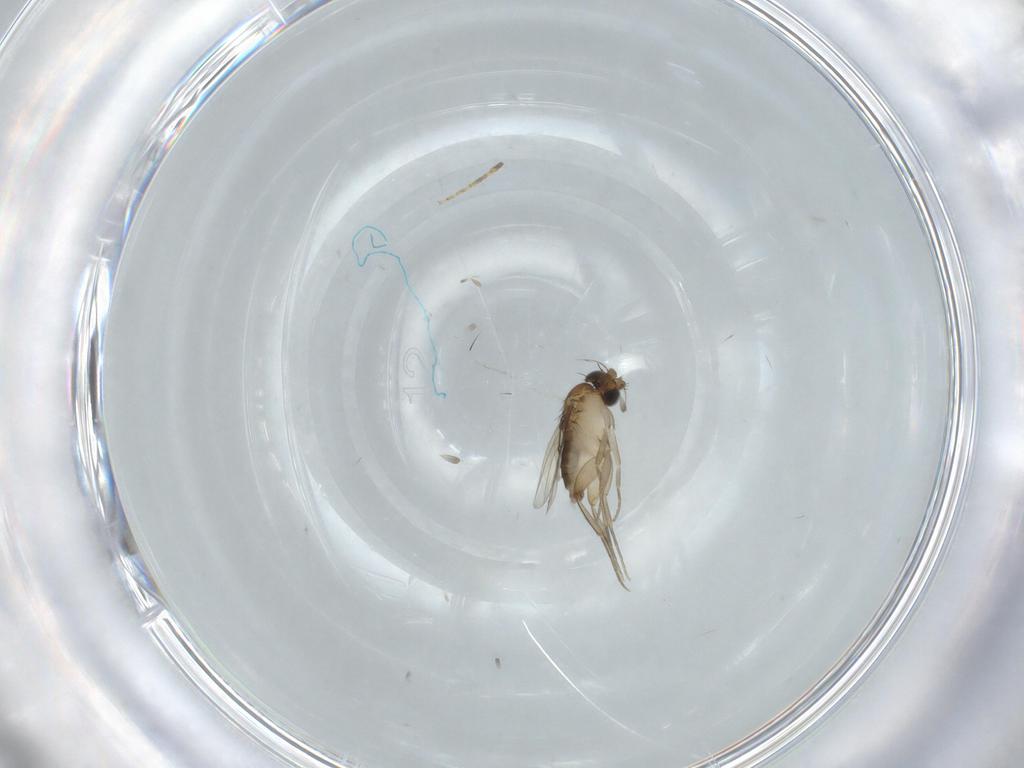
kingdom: Animalia
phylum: Arthropoda
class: Insecta
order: Diptera
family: Phoridae
